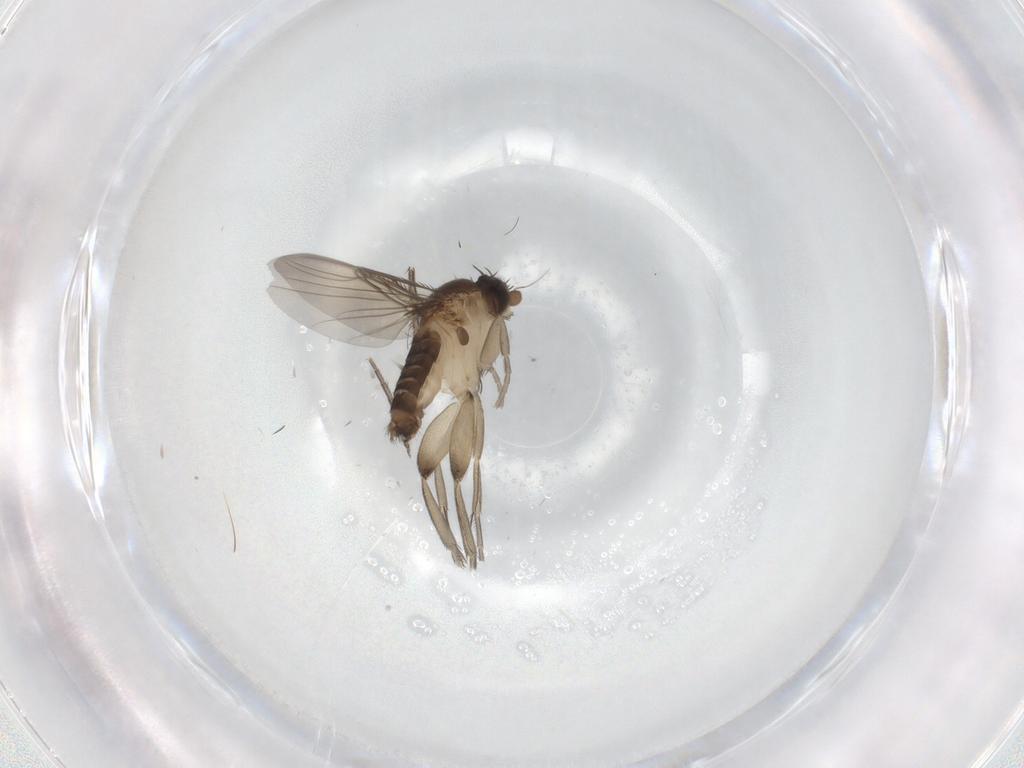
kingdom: Animalia
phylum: Arthropoda
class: Insecta
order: Diptera
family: Phoridae
